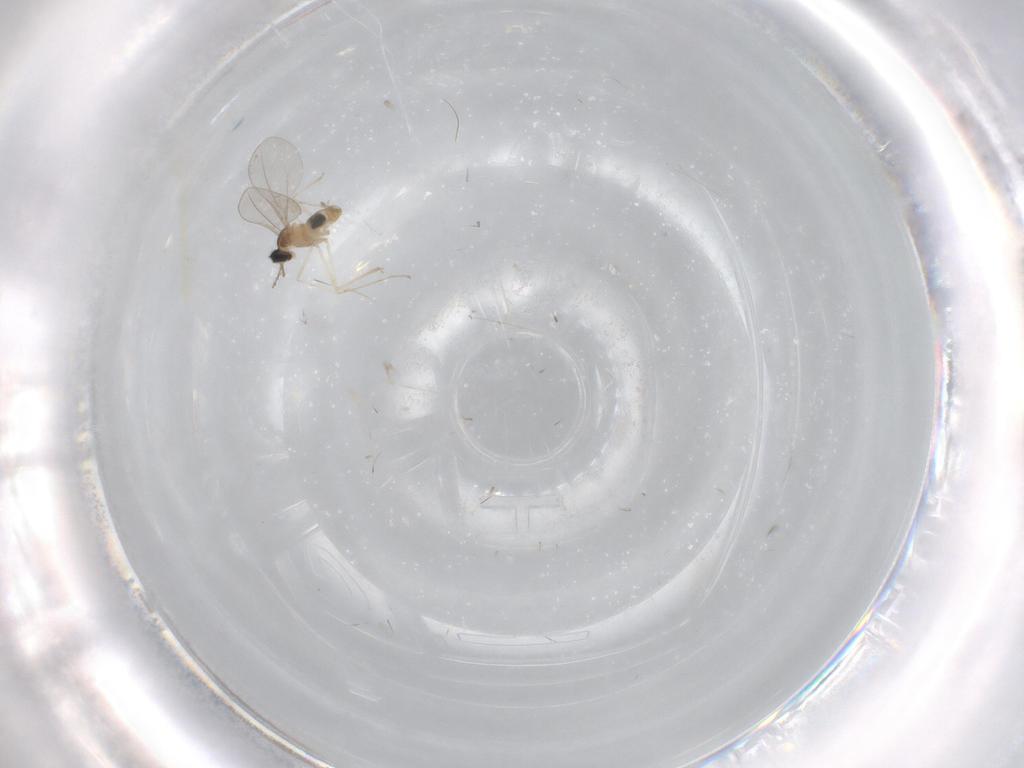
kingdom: Animalia
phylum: Arthropoda
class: Insecta
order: Diptera
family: Cecidomyiidae
